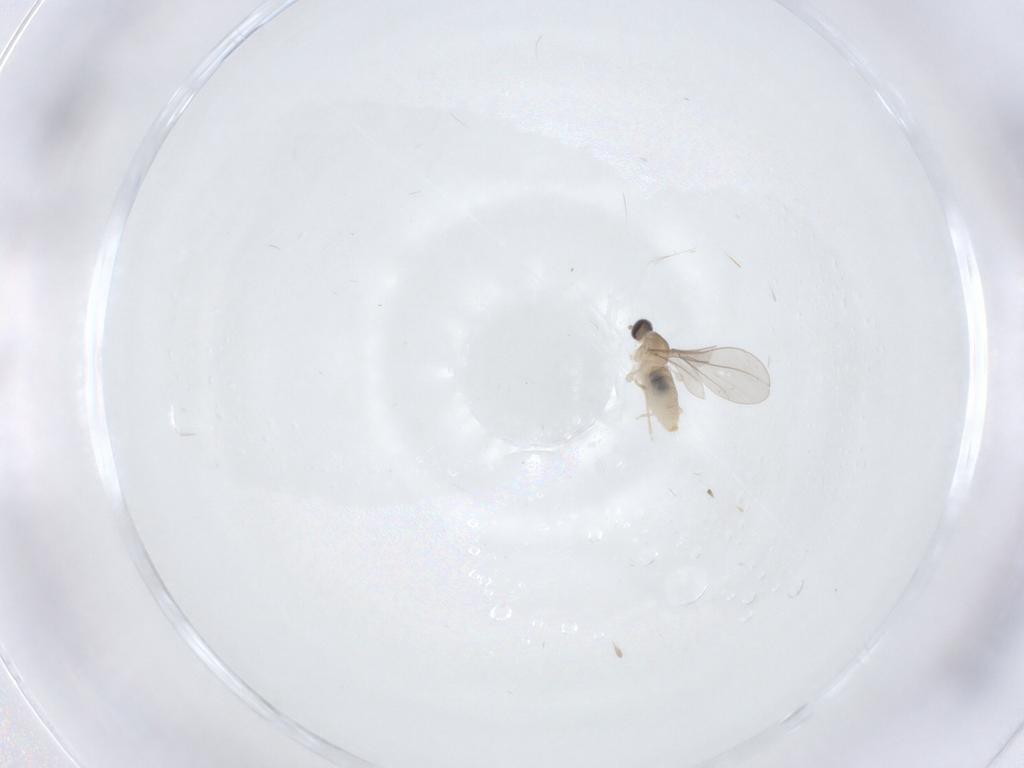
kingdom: Animalia
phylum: Arthropoda
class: Insecta
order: Diptera
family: Cecidomyiidae
